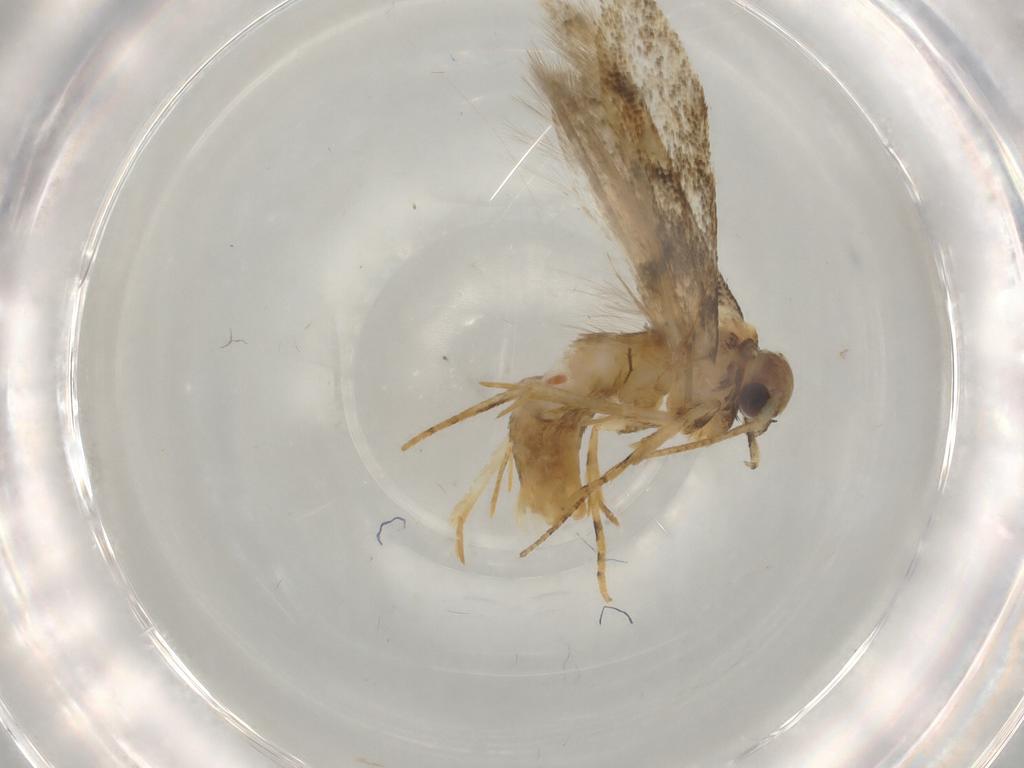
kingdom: Animalia
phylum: Arthropoda
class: Insecta
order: Lepidoptera
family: Gelechiidae
